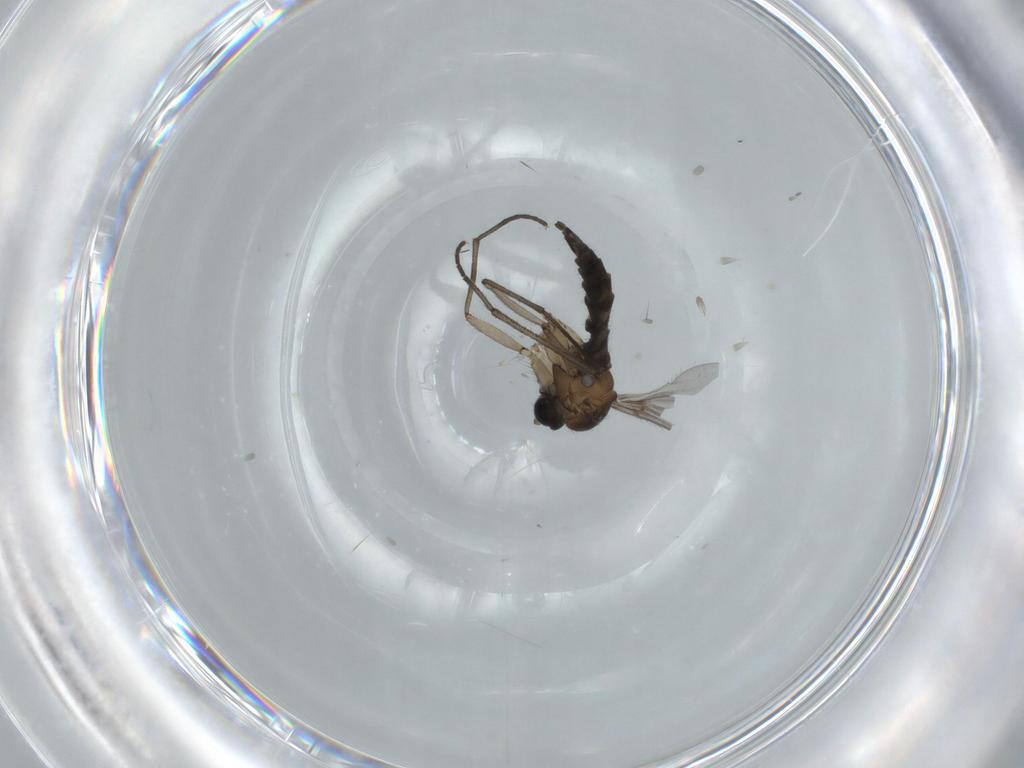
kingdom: Animalia
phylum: Arthropoda
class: Insecta
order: Diptera
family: Sciaridae
